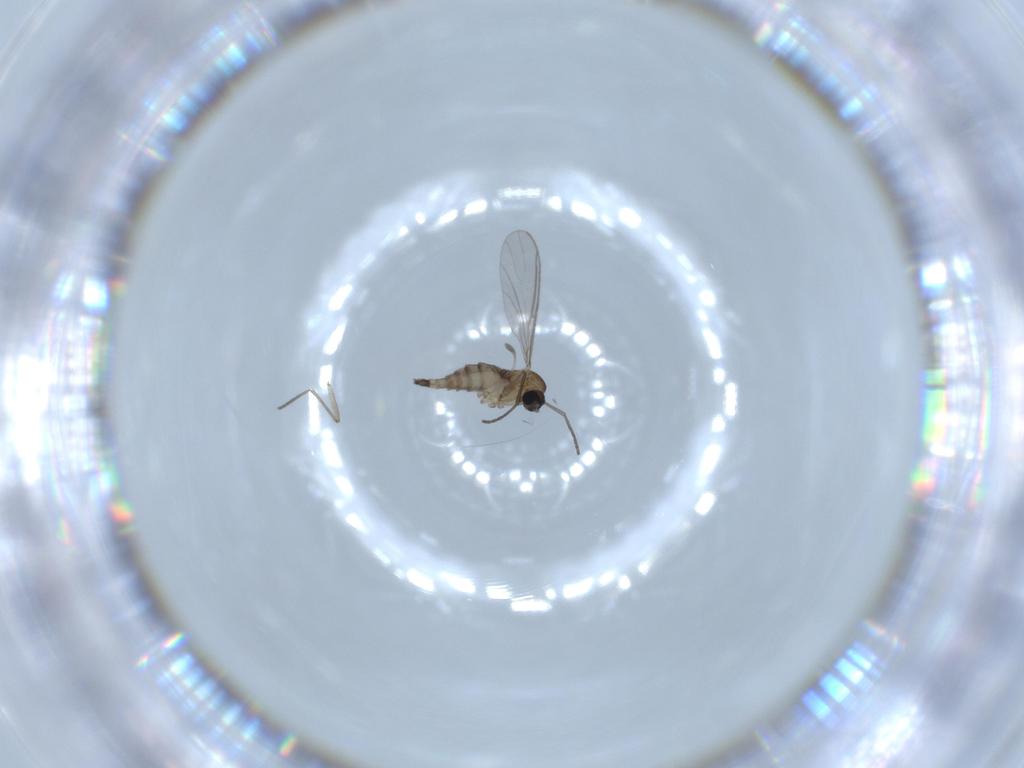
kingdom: Animalia
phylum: Arthropoda
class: Insecta
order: Diptera
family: Sciaridae
